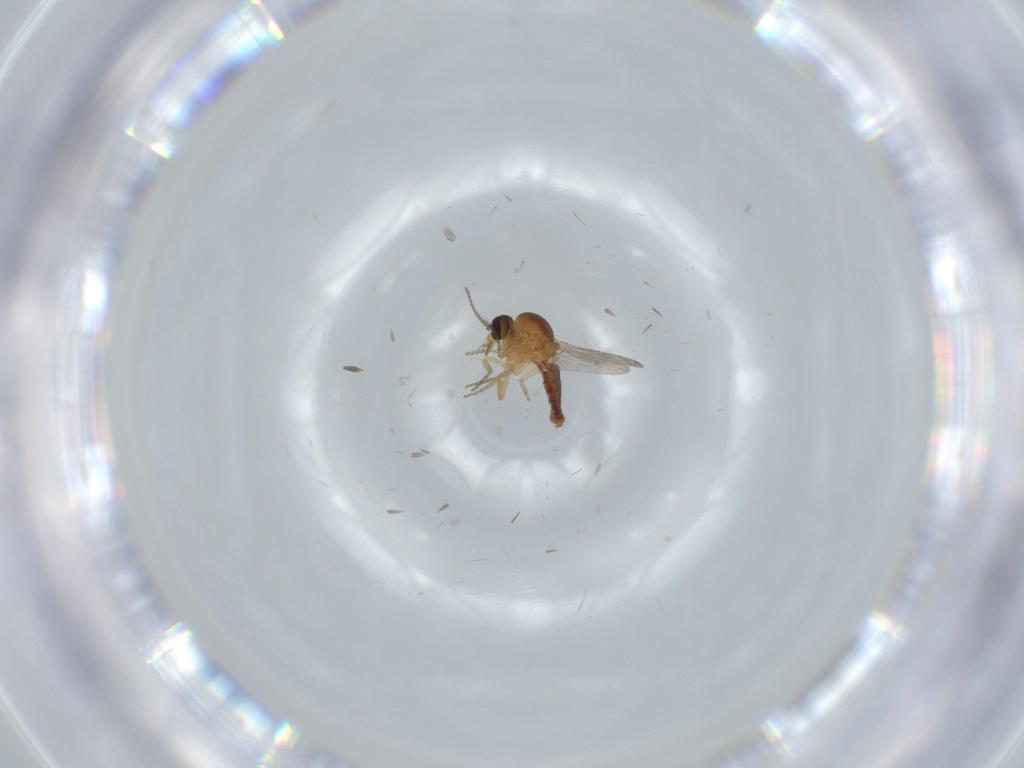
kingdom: Animalia
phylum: Arthropoda
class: Insecta
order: Diptera
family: Ceratopogonidae
